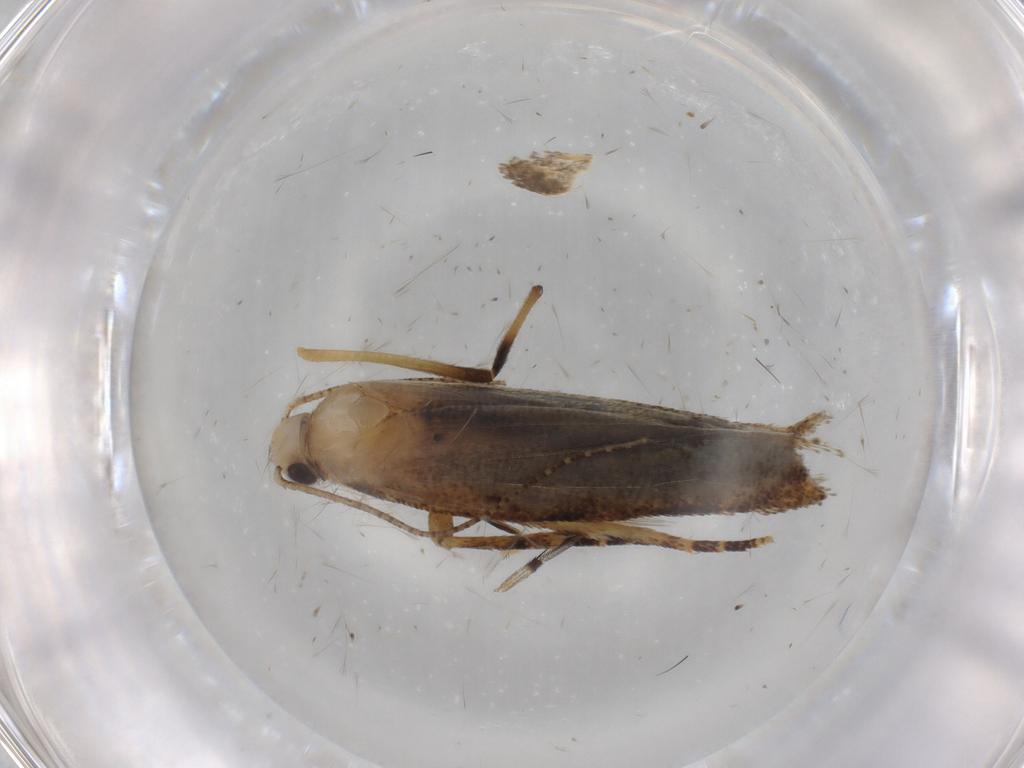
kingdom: Animalia
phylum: Arthropoda
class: Insecta
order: Lepidoptera
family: Gelechiidae
